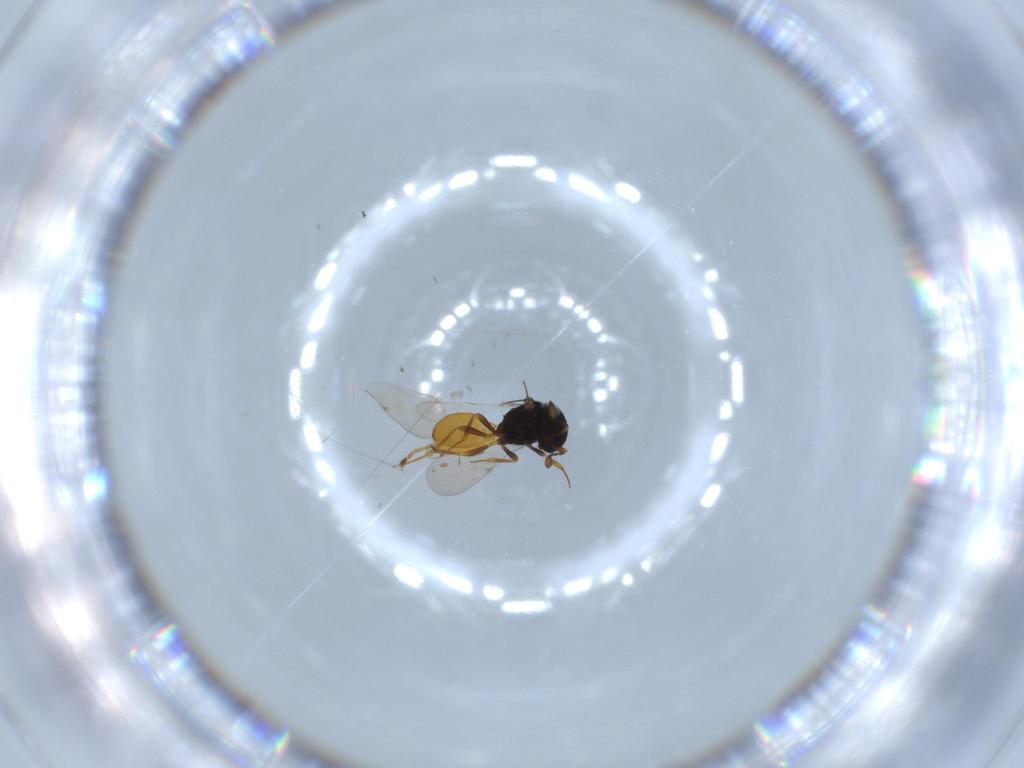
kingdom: Animalia
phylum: Arthropoda
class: Insecta
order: Hymenoptera
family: Scelionidae
